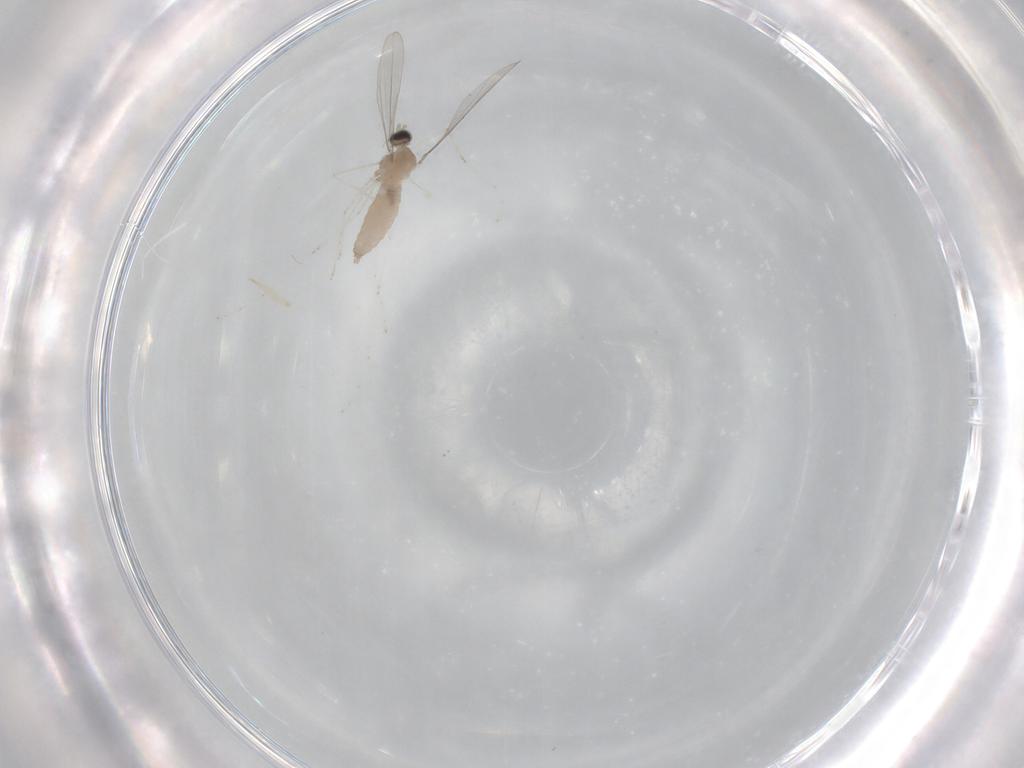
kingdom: Animalia
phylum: Arthropoda
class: Insecta
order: Diptera
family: Cecidomyiidae
